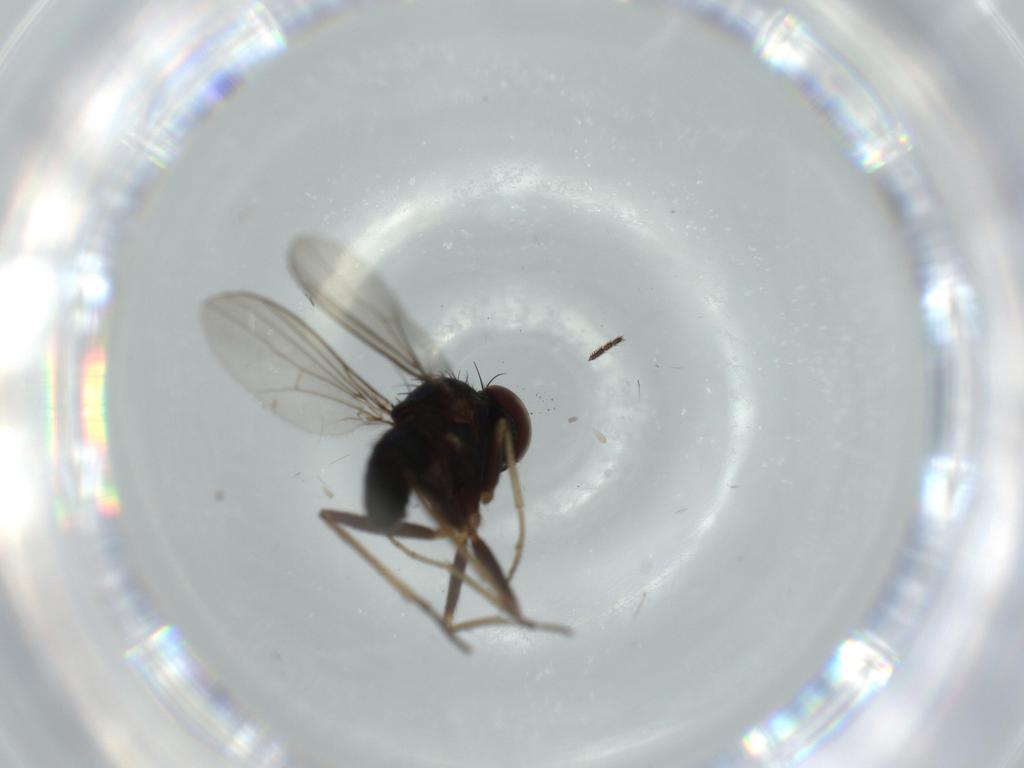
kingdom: Animalia
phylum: Arthropoda
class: Insecta
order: Diptera
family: Dolichopodidae
